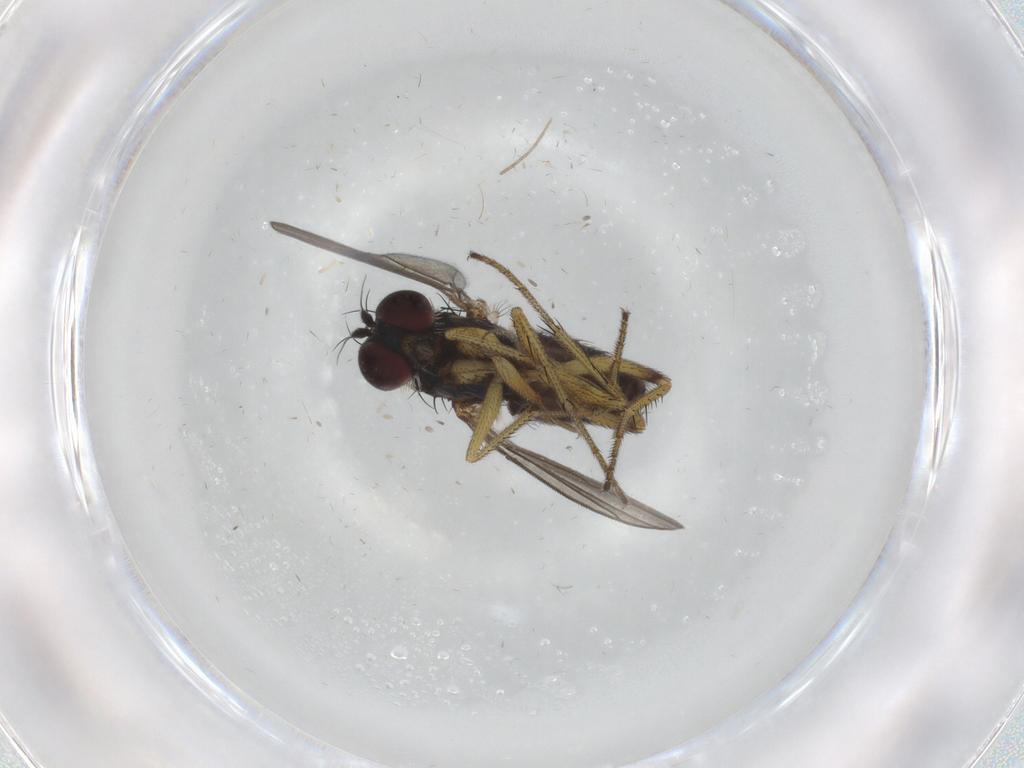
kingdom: Animalia
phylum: Arthropoda
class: Insecta
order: Diptera
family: Dolichopodidae
